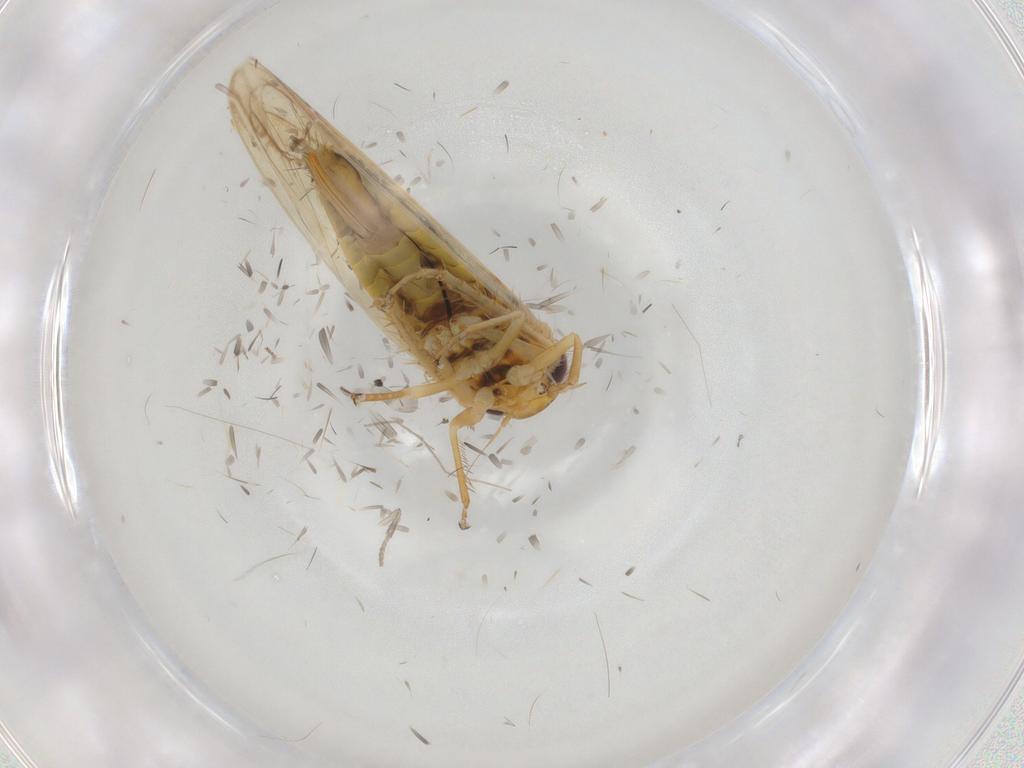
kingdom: Animalia
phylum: Arthropoda
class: Insecta
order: Hemiptera
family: Cicadellidae
